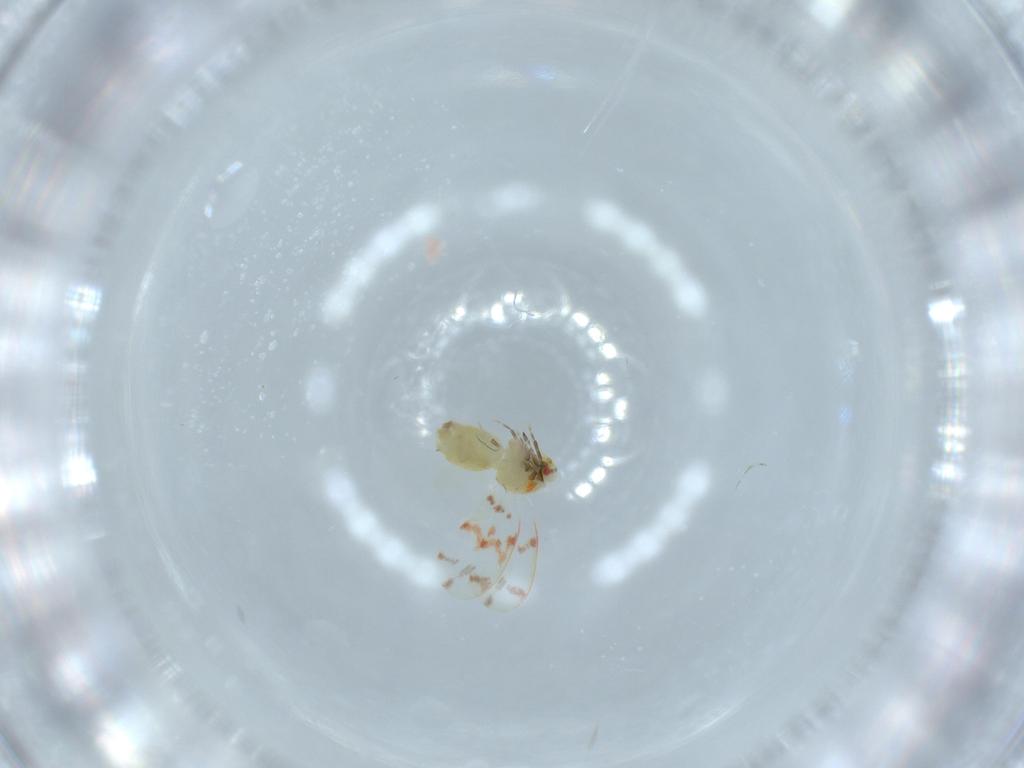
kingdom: Animalia
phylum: Arthropoda
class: Insecta
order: Hemiptera
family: Aleyrodidae
